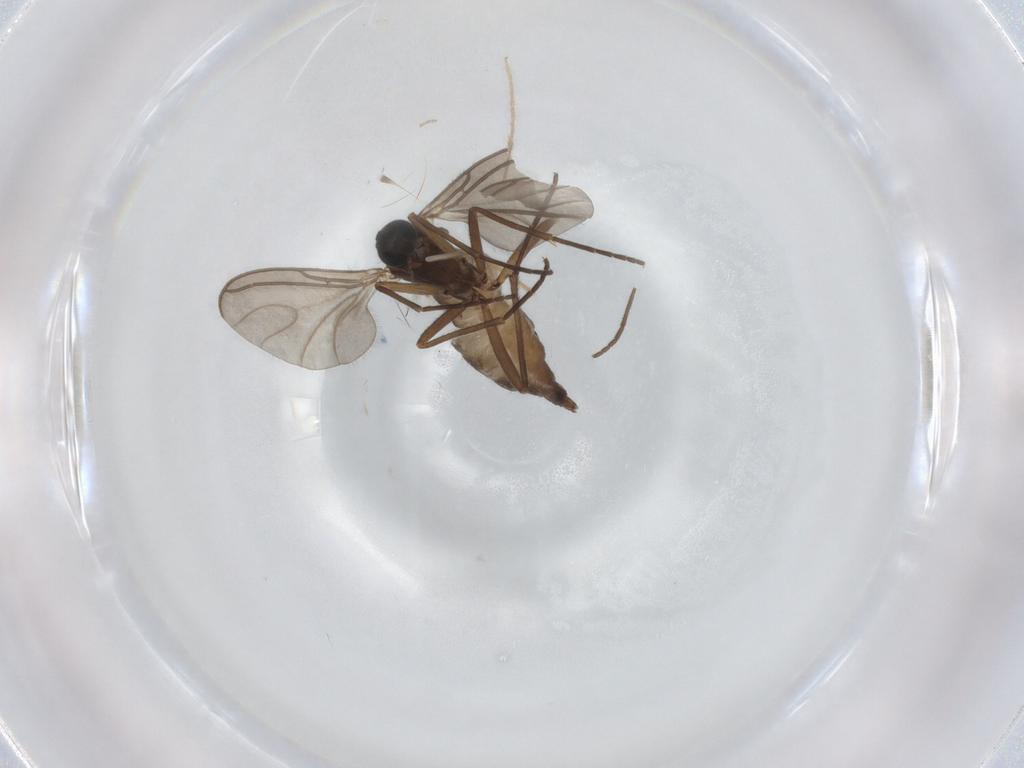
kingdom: Animalia
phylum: Arthropoda
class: Insecta
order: Diptera
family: Sciaridae
